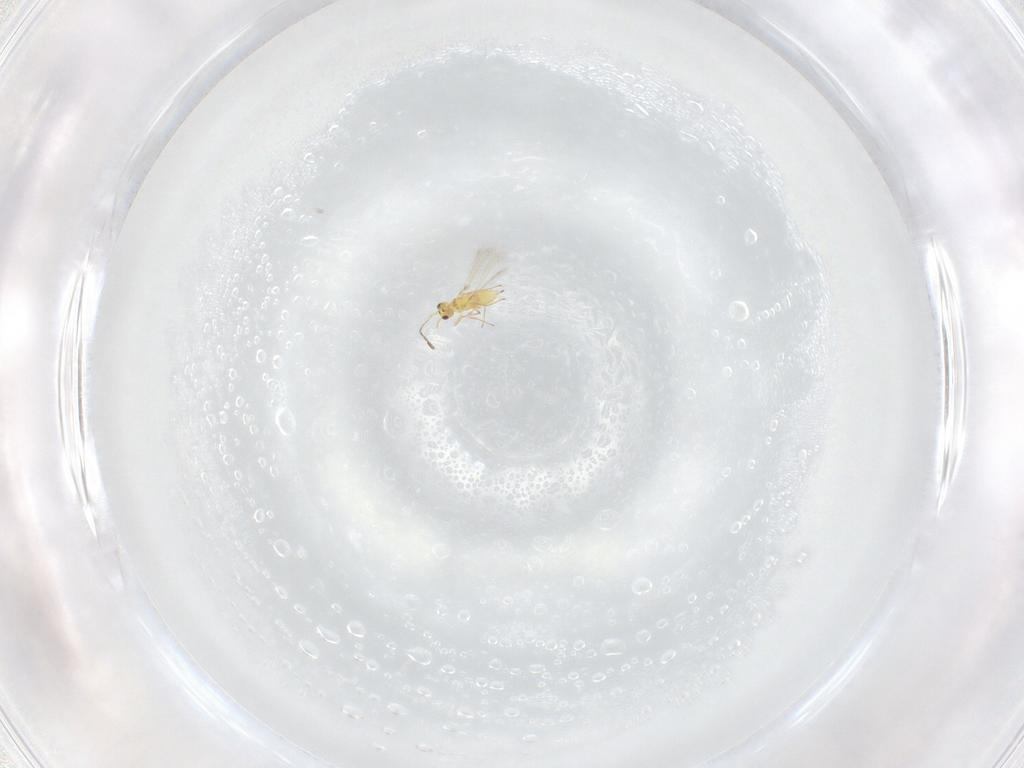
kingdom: Animalia
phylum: Arthropoda
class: Insecta
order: Hymenoptera
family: Mymaridae
